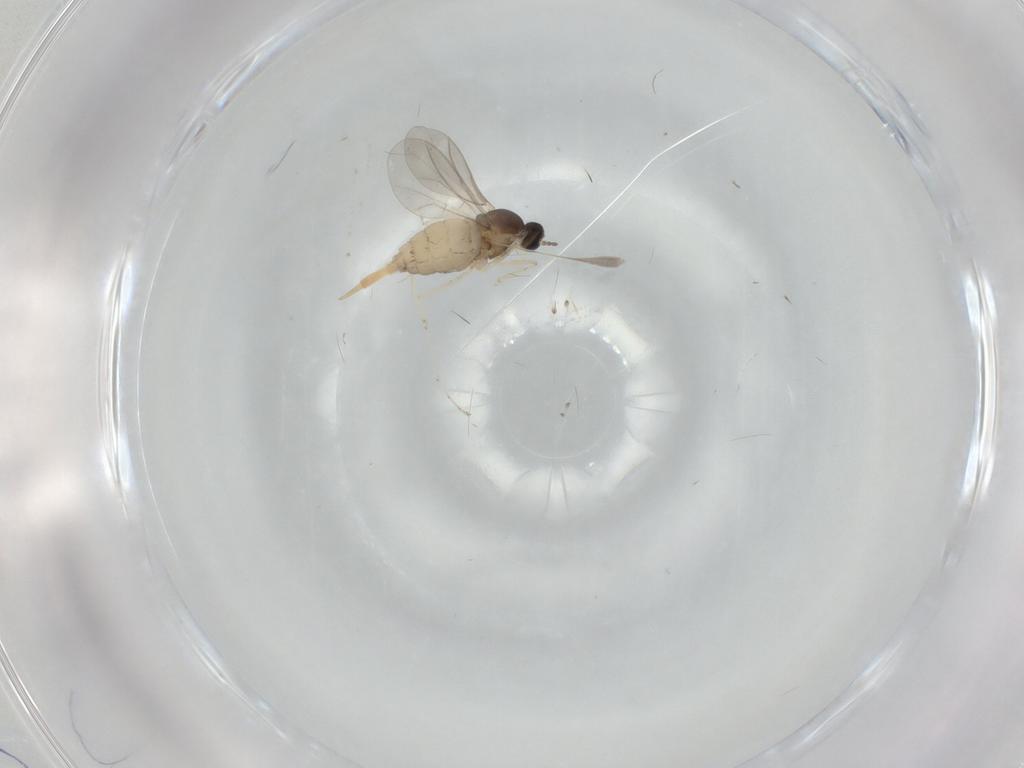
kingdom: Animalia
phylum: Arthropoda
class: Insecta
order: Diptera
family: Cecidomyiidae
